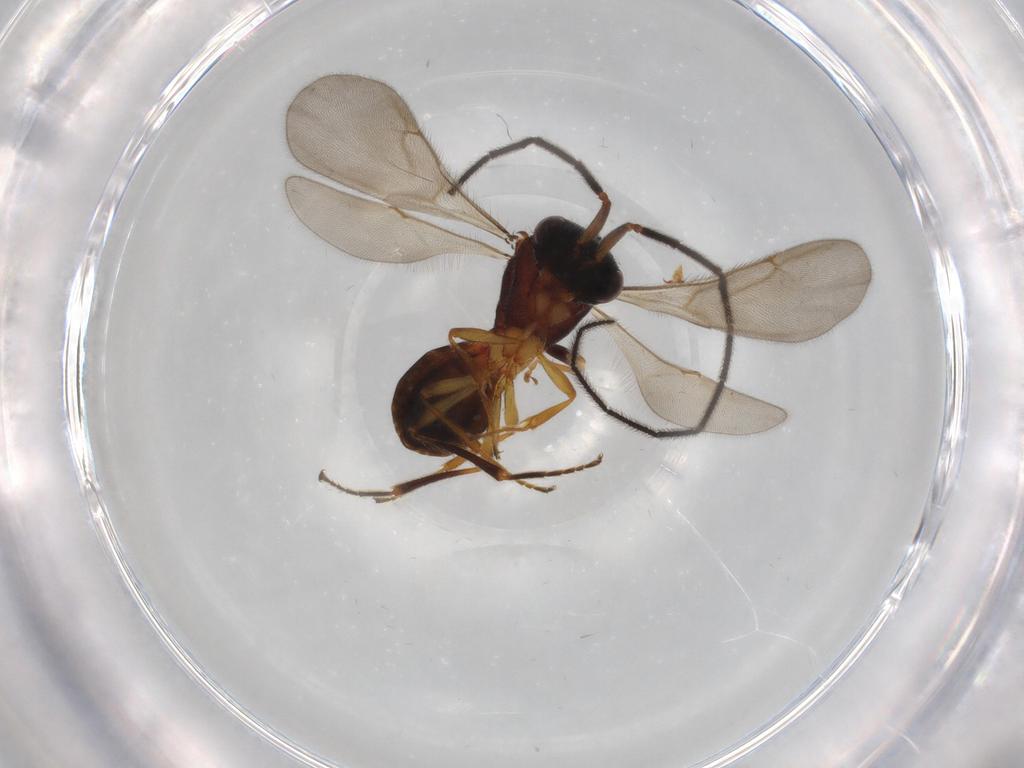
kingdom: Animalia
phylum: Arthropoda
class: Insecta
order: Hymenoptera
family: Scelionidae
